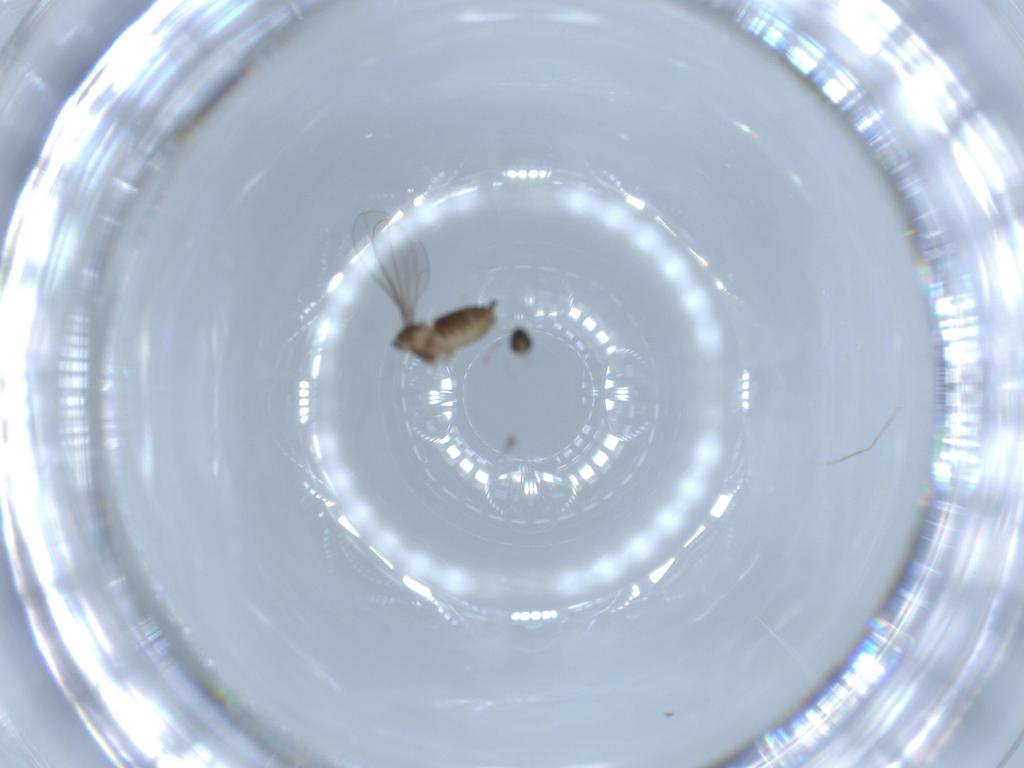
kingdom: Animalia
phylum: Arthropoda
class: Insecta
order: Diptera
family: Cecidomyiidae
